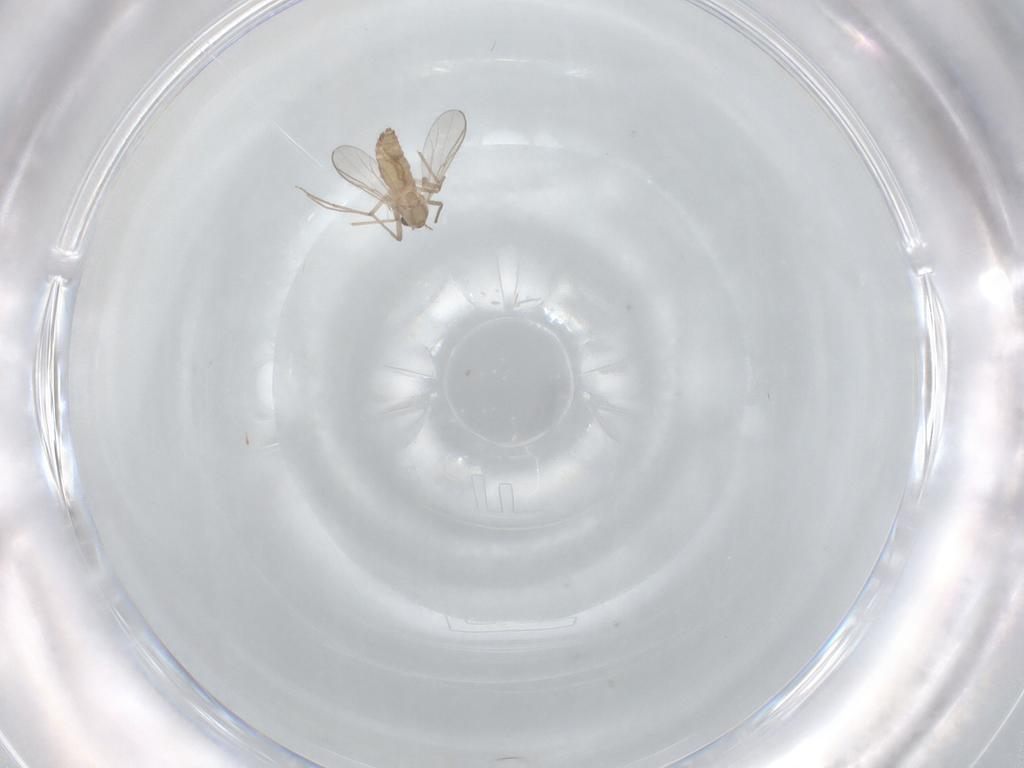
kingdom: Animalia
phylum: Arthropoda
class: Insecta
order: Diptera
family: Chironomidae
